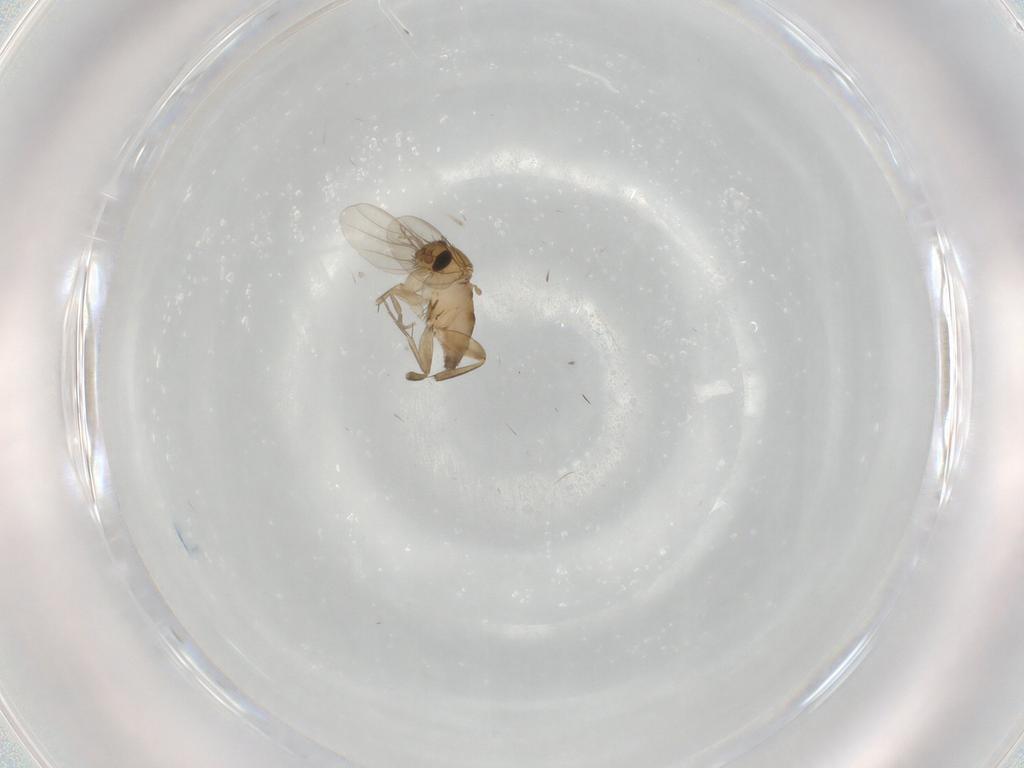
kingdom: Animalia
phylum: Arthropoda
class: Insecta
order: Diptera
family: Phoridae
